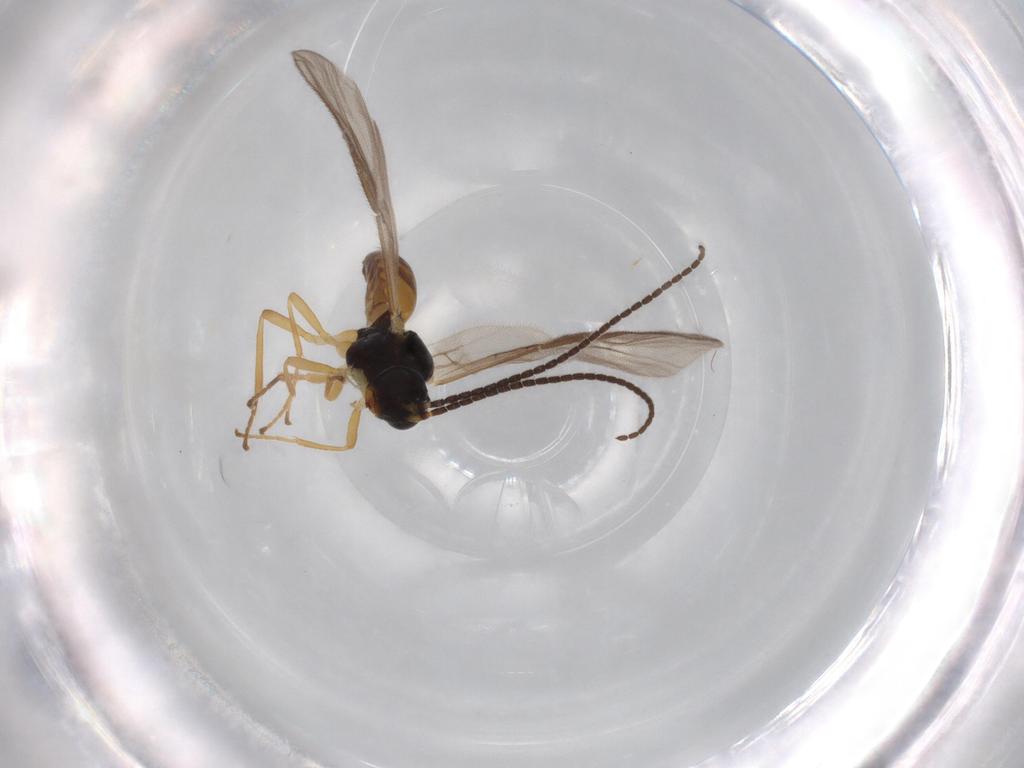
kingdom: Animalia
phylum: Arthropoda
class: Insecta
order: Hymenoptera
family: Braconidae
